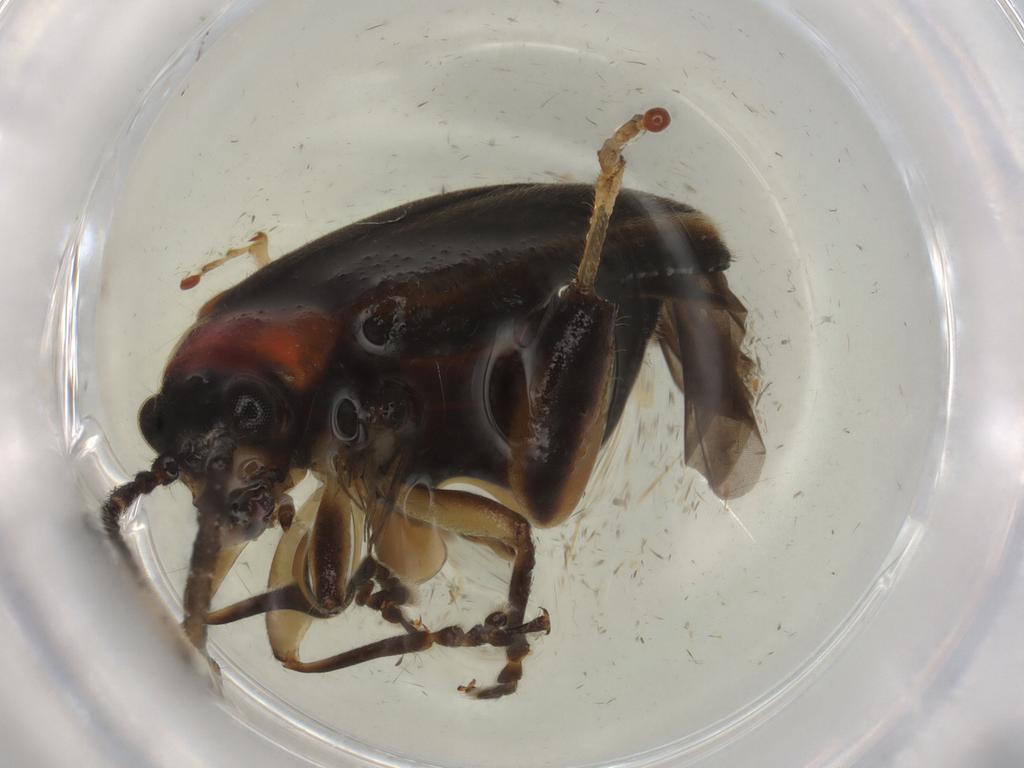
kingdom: Animalia
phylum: Arthropoda
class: Insecta
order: Coleoptera
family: Chrysomelidae
